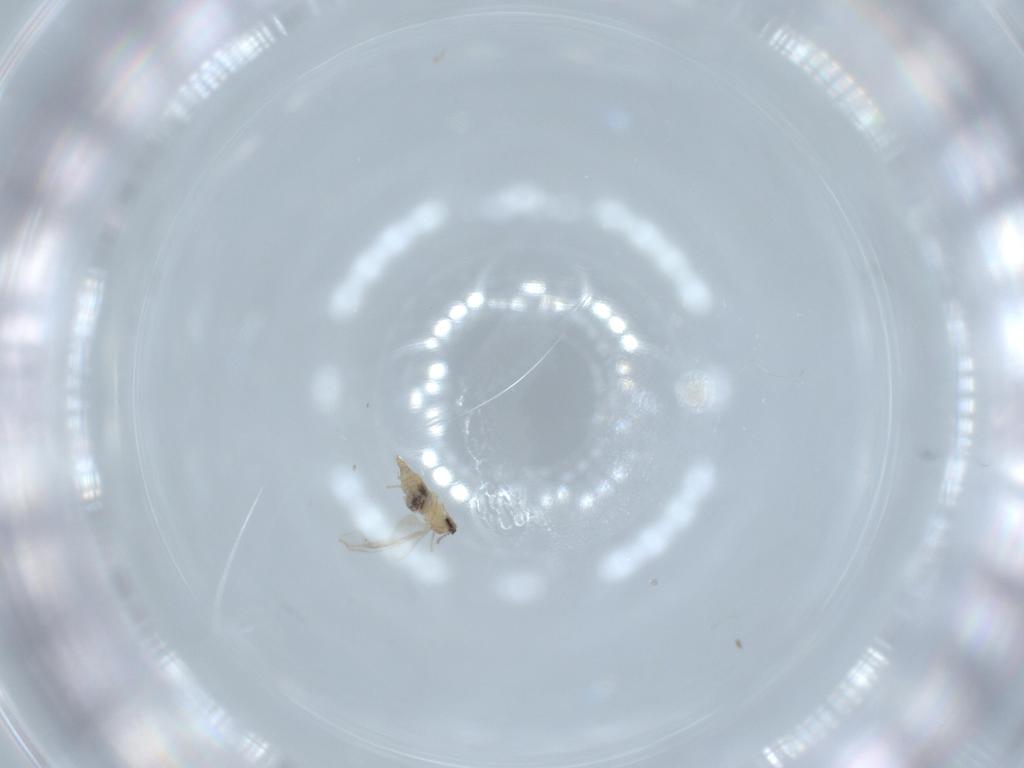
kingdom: Animalia
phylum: Arthropoda
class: Insecta
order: Diptera
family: Cecidomyiidae
